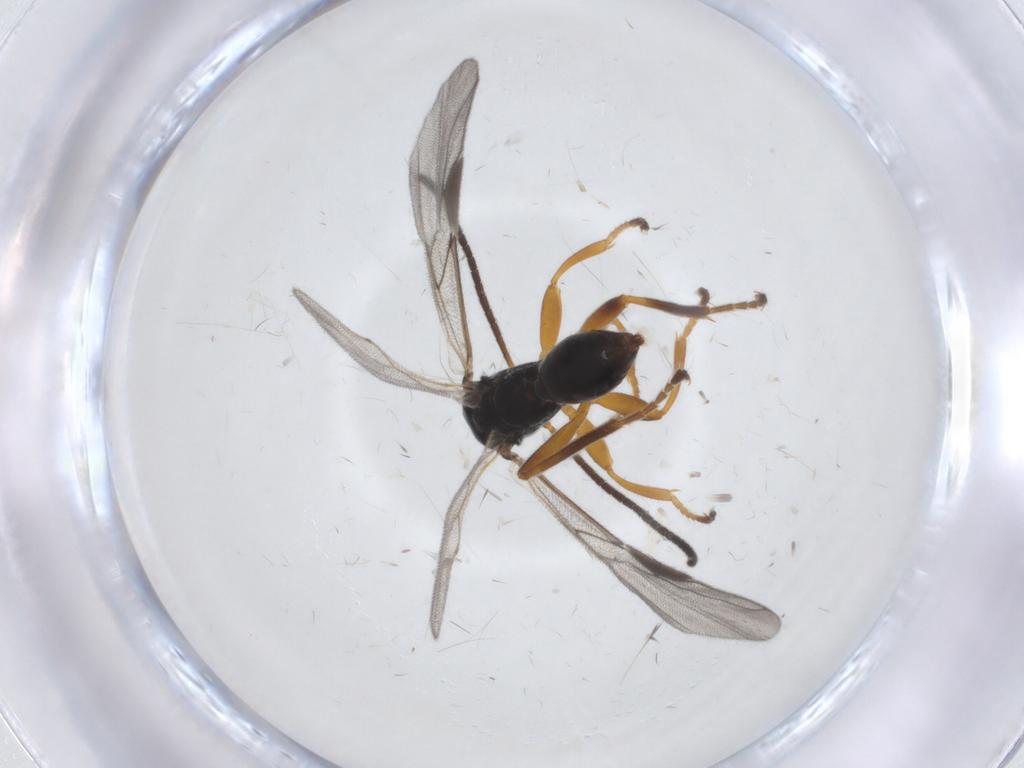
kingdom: Animalia
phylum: Arthropoda
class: Insecta
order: Hymenoptera
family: Braconidae
